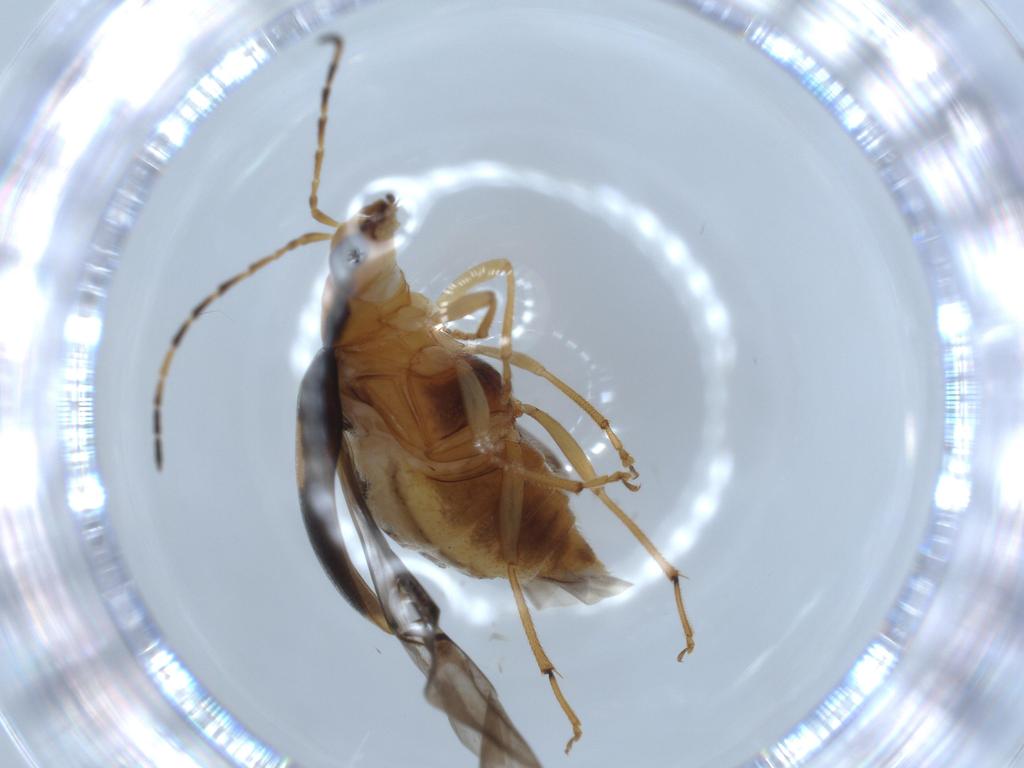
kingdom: Animalia
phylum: Arthropoda
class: Insecta
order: Coleoptera
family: Chrysomelidae
